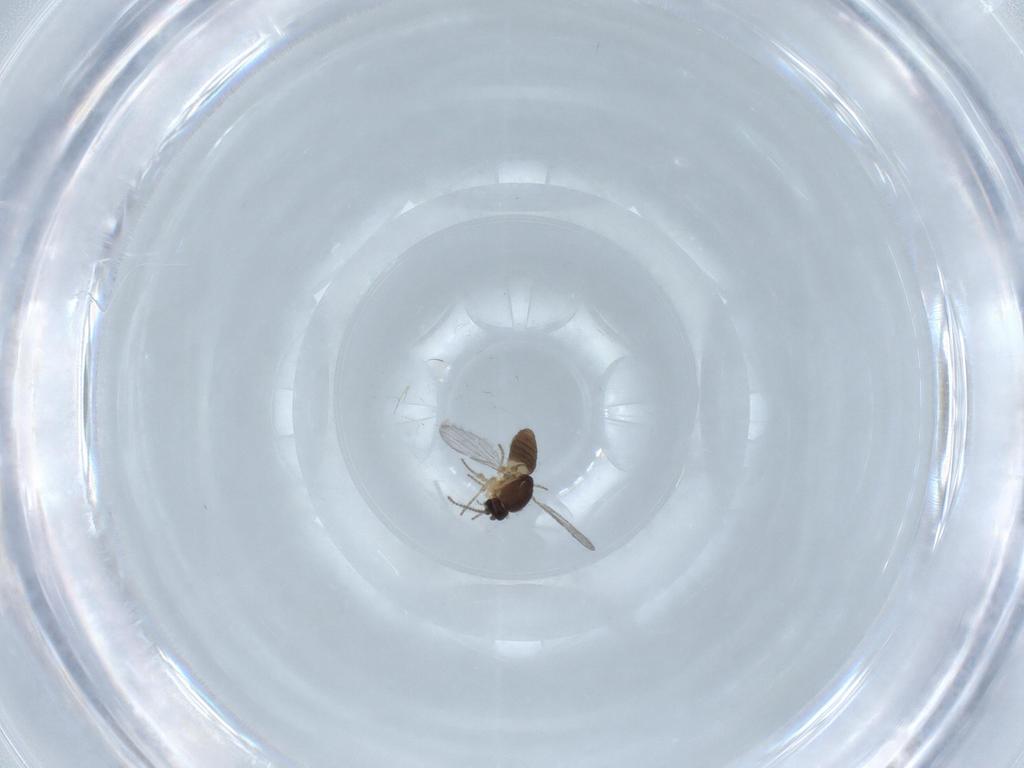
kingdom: Animalia
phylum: Arthropoda
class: Insecta
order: Diptera
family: Ceratopogonidae
